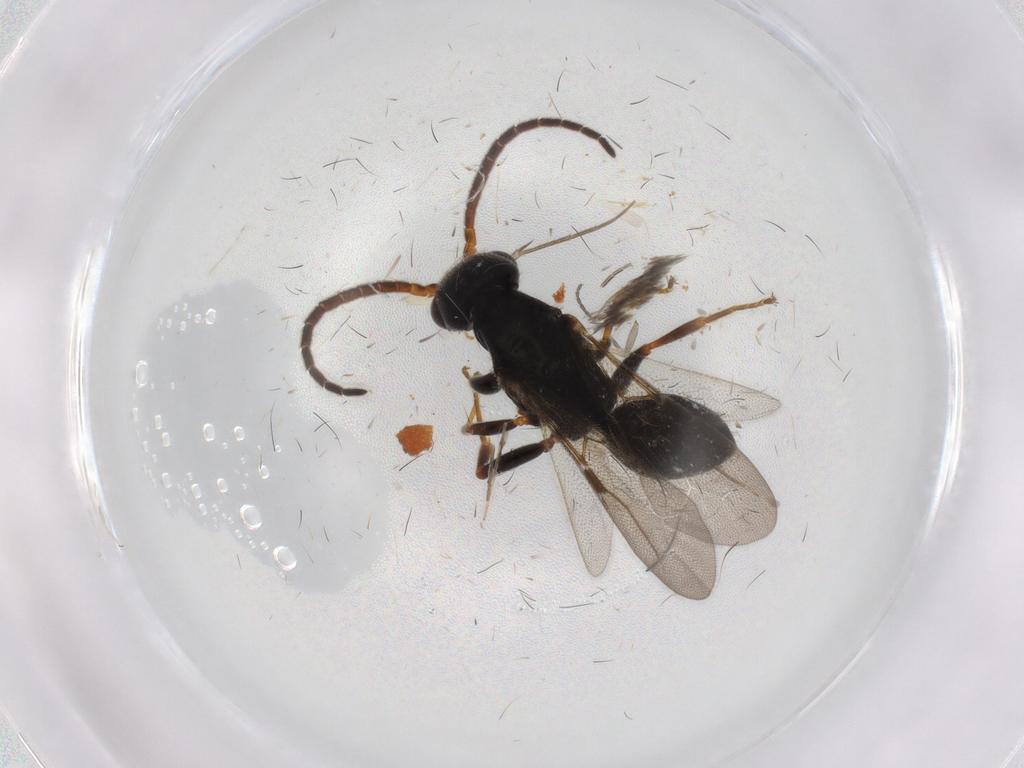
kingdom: Animalia
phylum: Arthropoda
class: Insecta
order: Hymenoptera
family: Bethylidae
